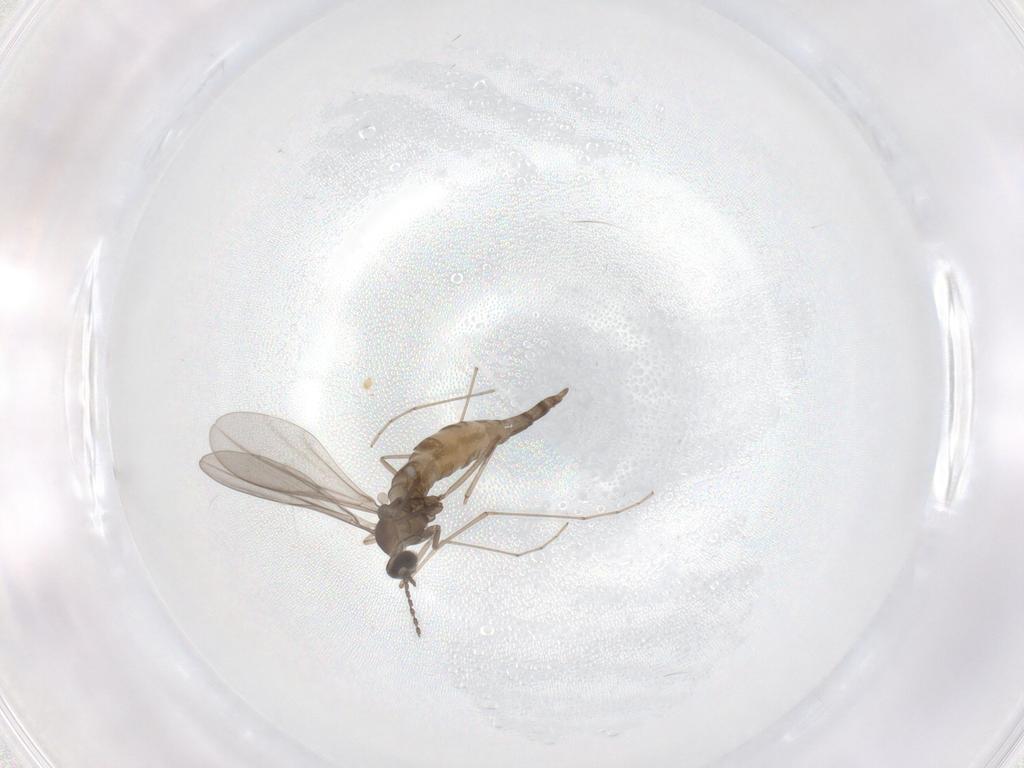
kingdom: Animalia
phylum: Arthropoda
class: Insecta
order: Diptera
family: Cecidomyiidae
